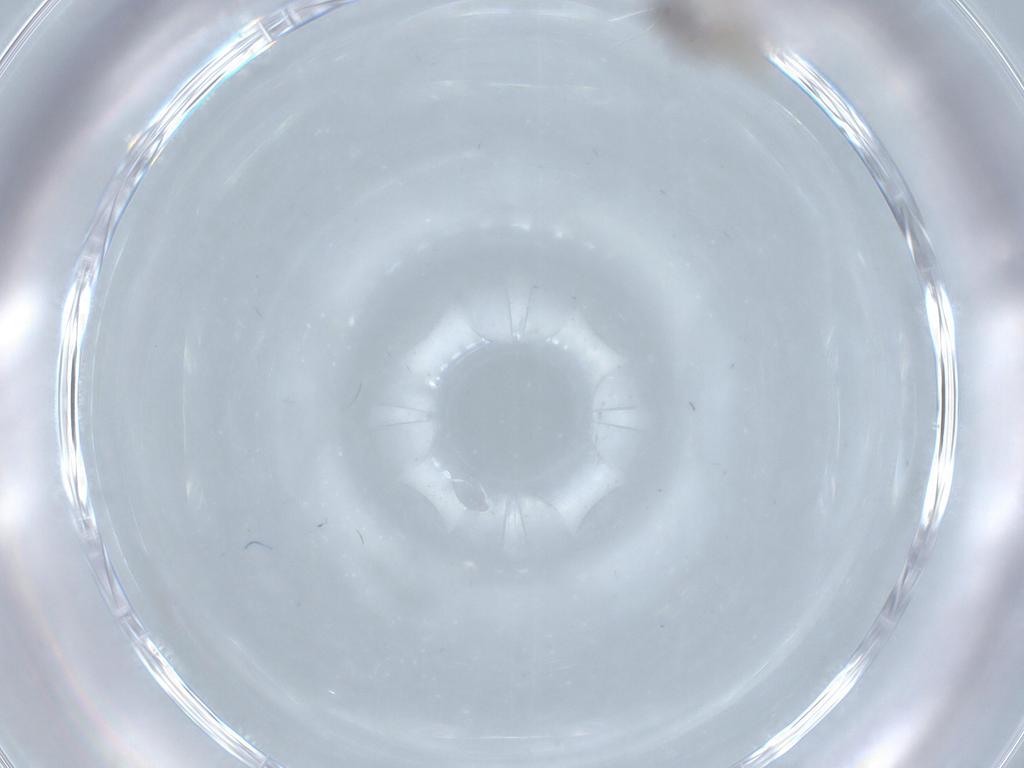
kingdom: Animalia
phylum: Arthropoda
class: Insecta
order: Diptera
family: Chironomidae
